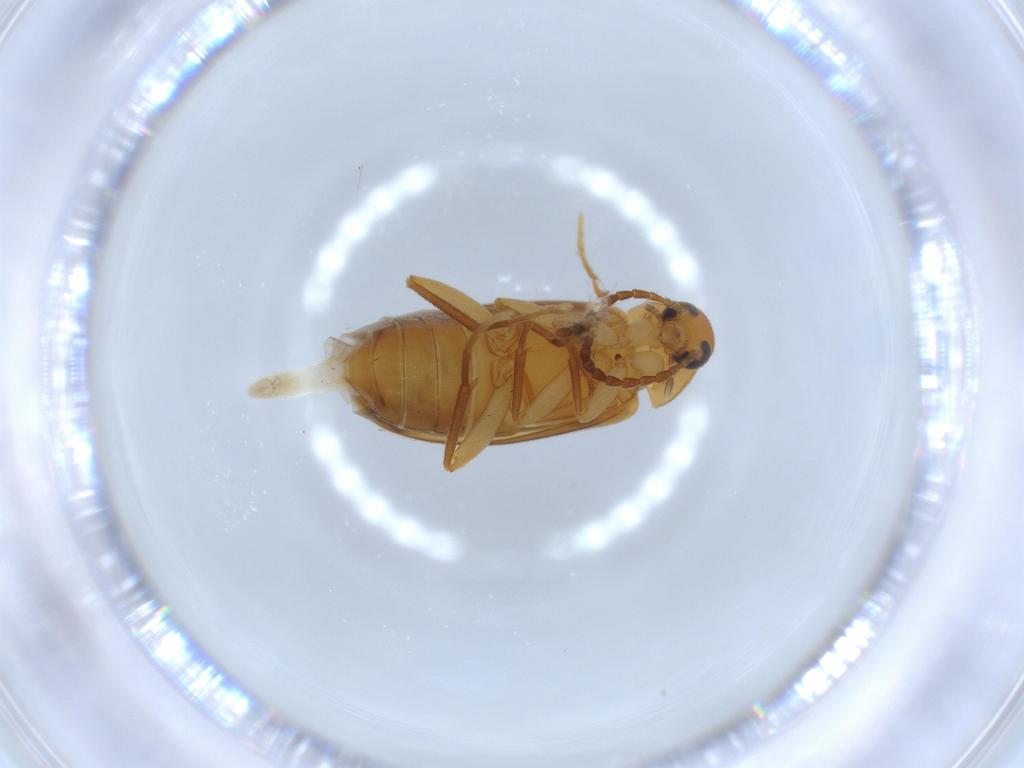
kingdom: Animalia
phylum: Arthropoda
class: Insecta
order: Coleoptera
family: Scraptiidae
